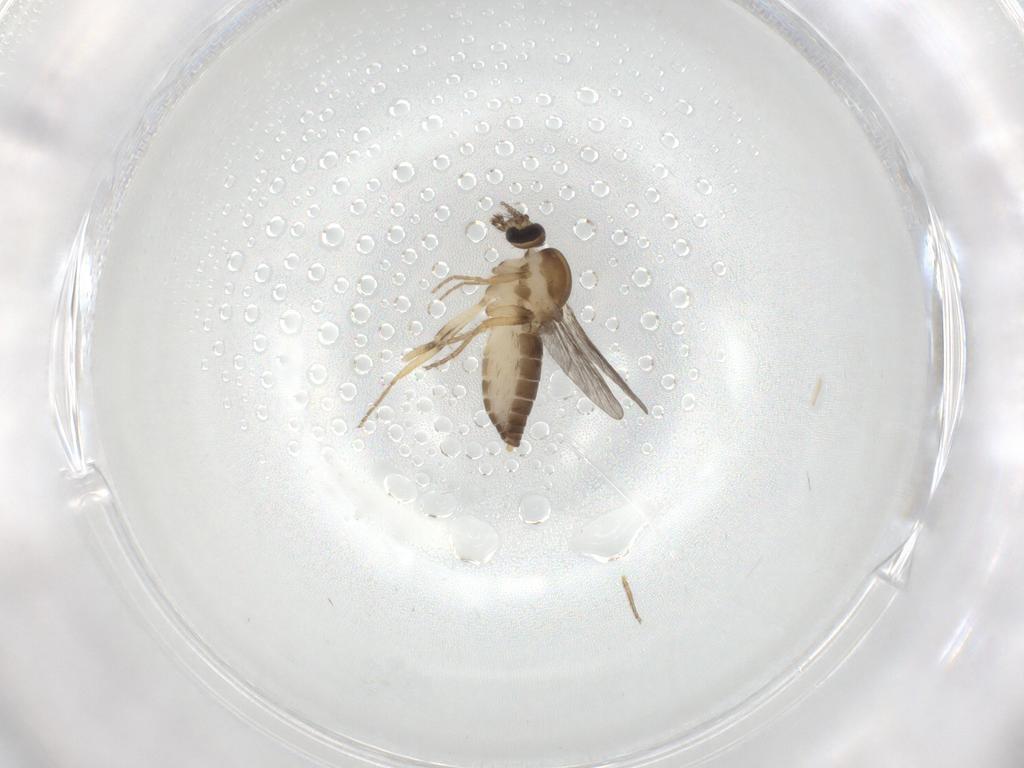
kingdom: Animalia
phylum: Arthropoda
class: Insecta
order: Diptera
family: Ceratopogonidae
